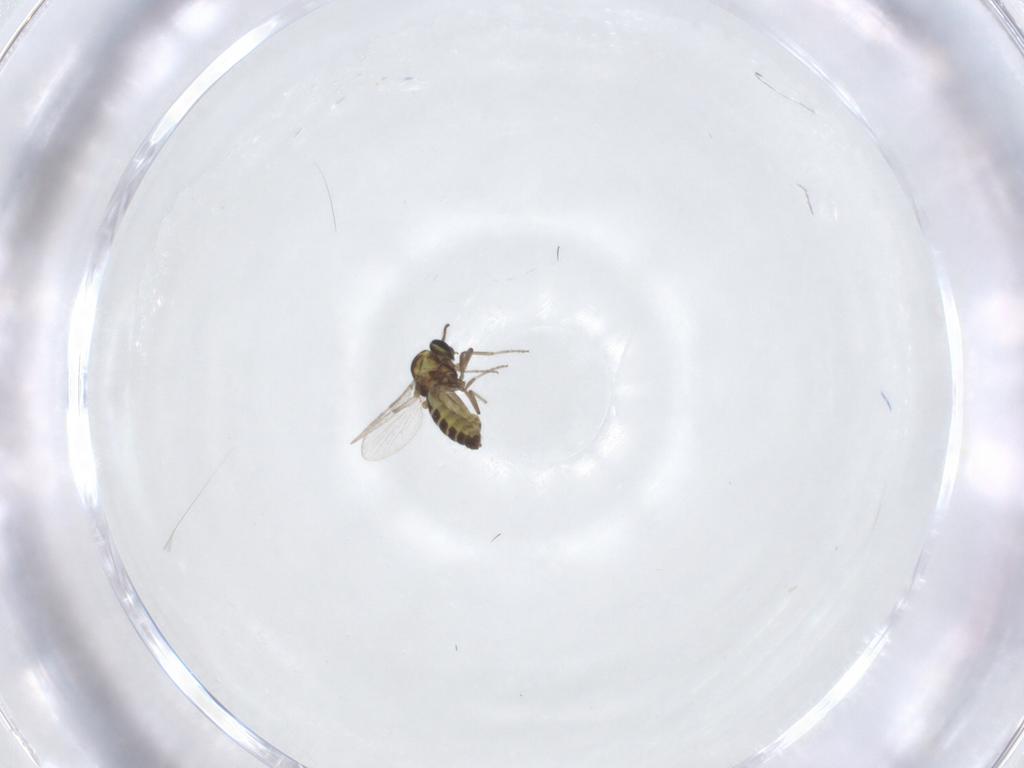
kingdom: Animalia
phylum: Arthropoda
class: Insecta
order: Diptera
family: Ceratopogonidae
